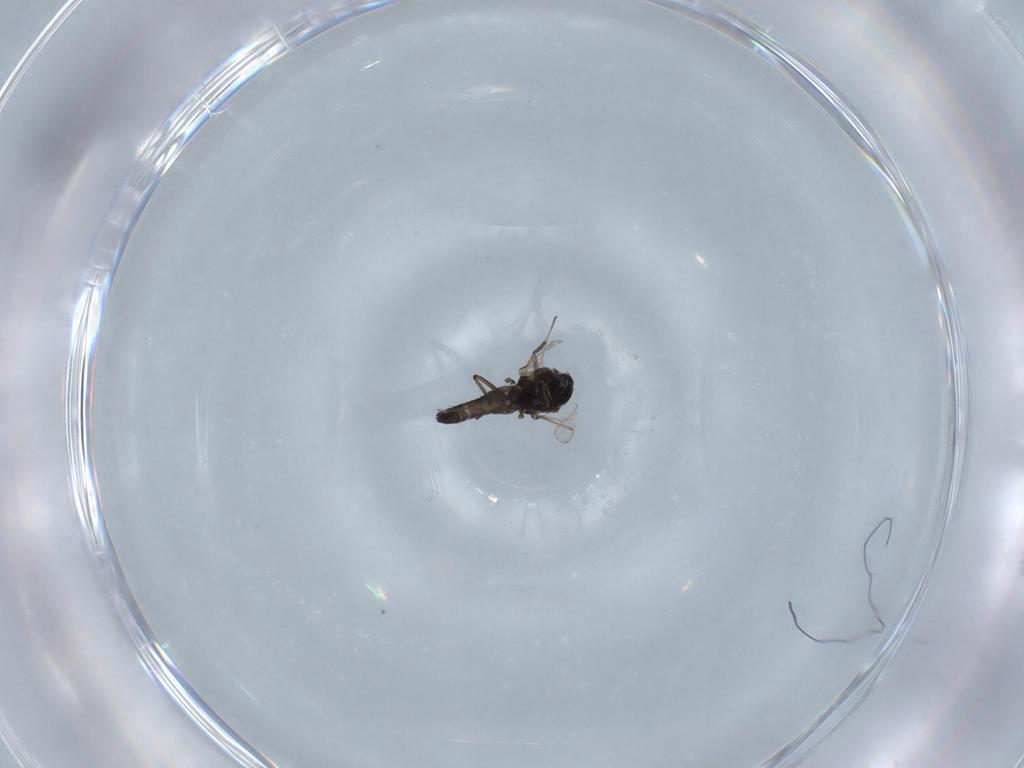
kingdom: Animalia
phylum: Arthropoda
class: Insecta
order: Diptera
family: Ceratopogonidae
